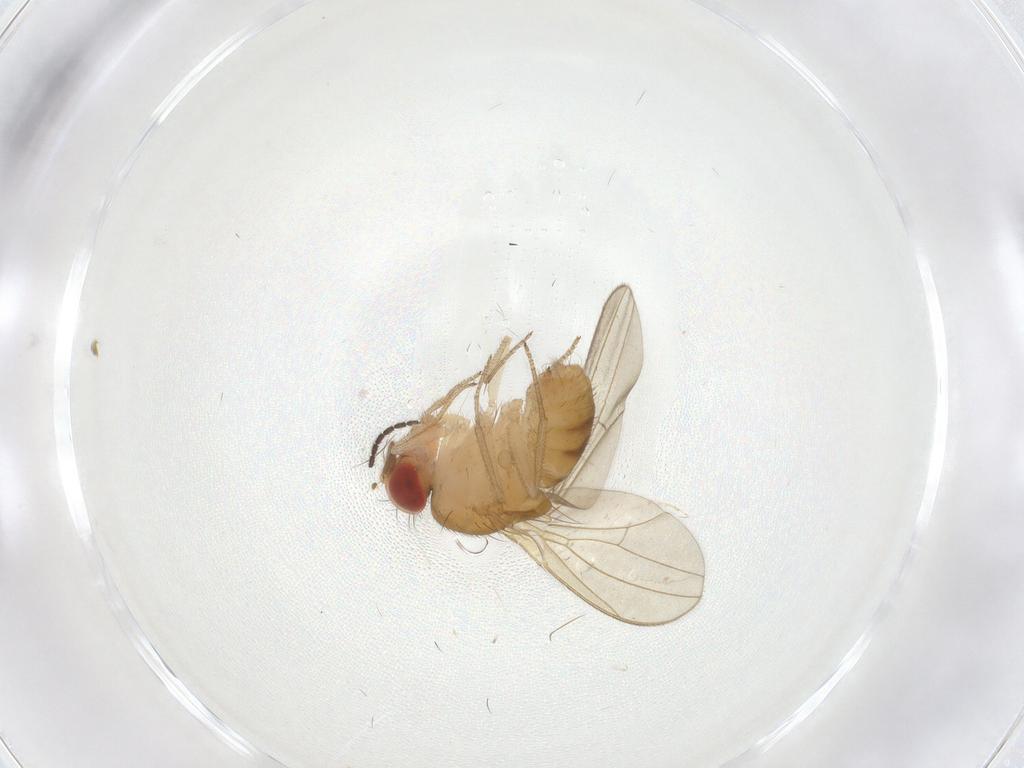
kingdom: Animalia
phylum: Arthropoda
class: Insecta
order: Diptera
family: Drosophilidae
